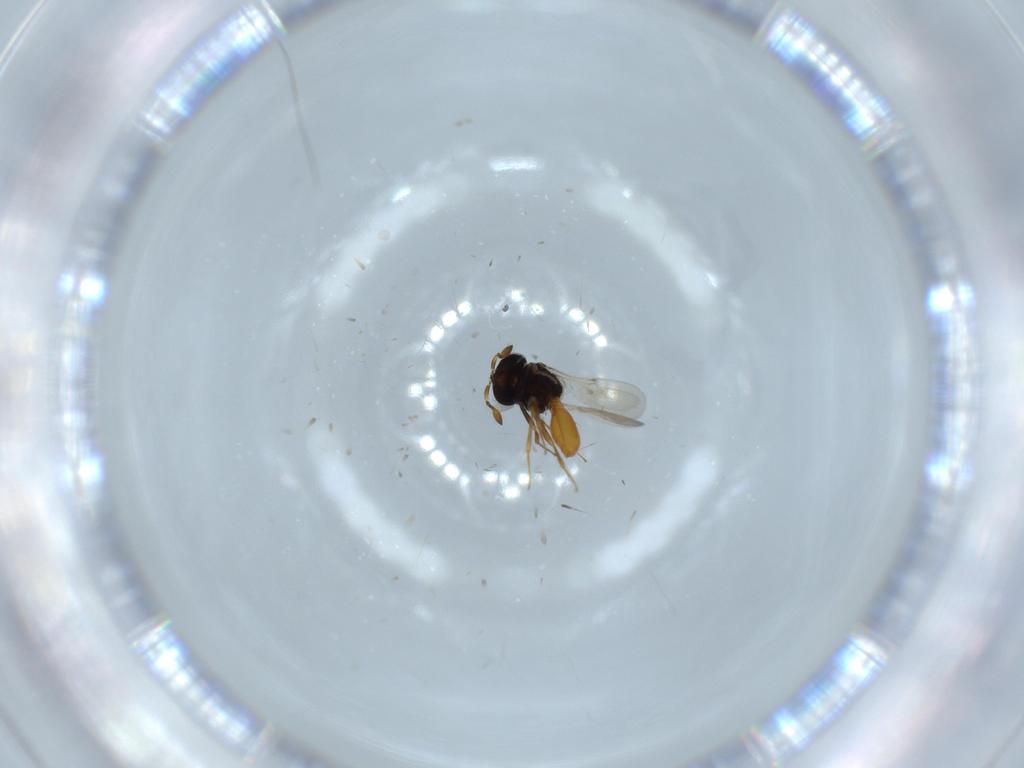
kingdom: Animalia
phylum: Arthropoda
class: Insecta
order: Hymenoptera
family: Scelionidae
